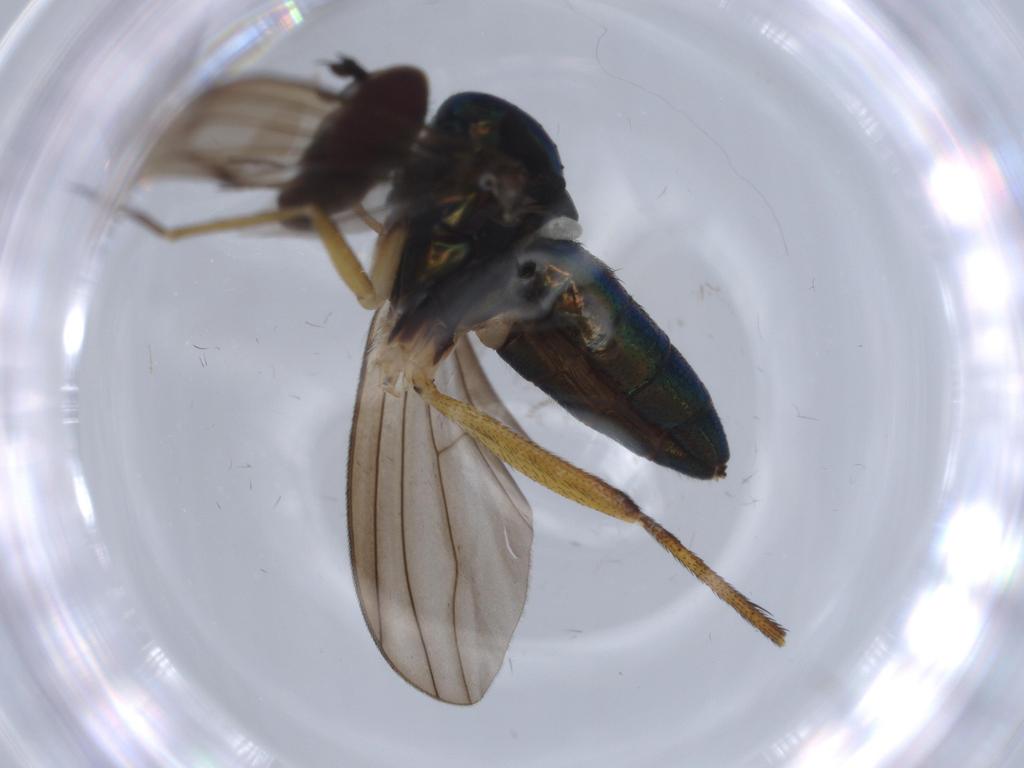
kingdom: Animalia
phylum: Arthropoda
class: Insecta
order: Diptera
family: Dolichopodidae
